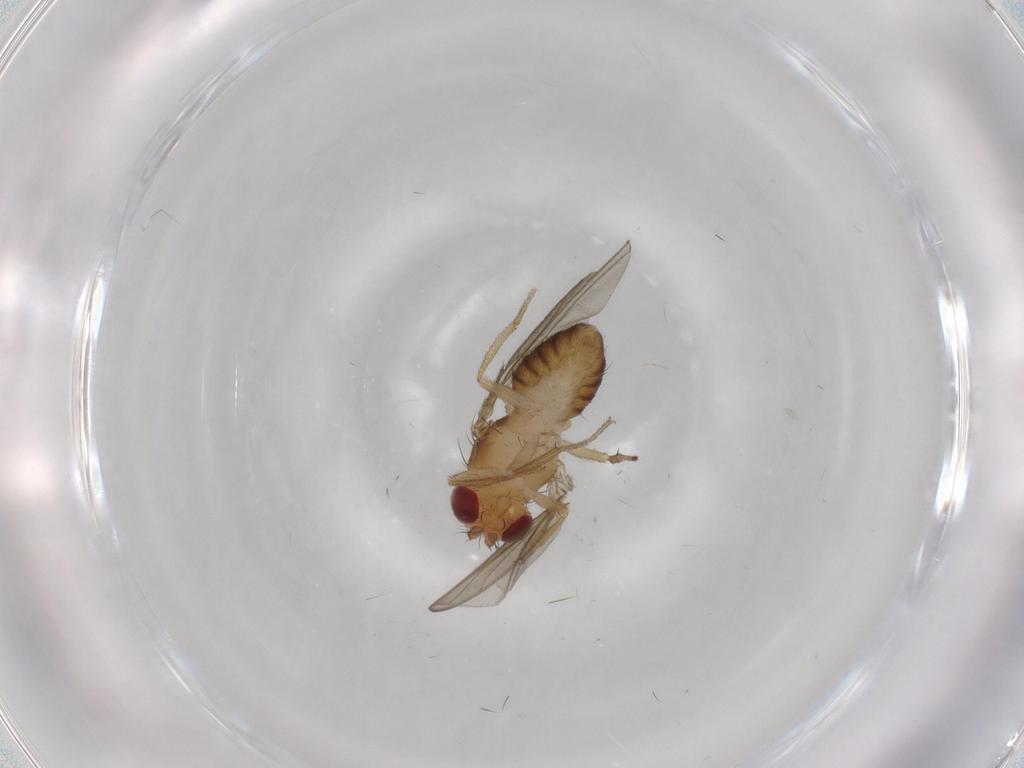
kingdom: Animalia
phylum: Arthropoda
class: Insecta
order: Diptera
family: Drosophilidae
